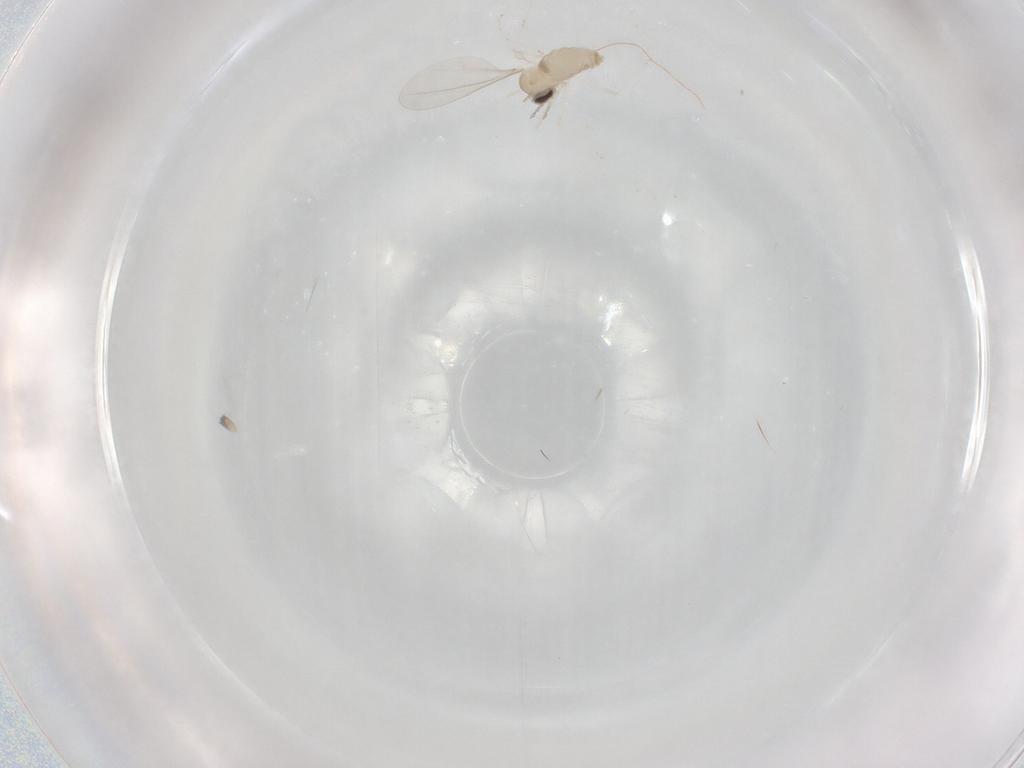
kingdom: Animalia
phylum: Arthropoda
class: Insecta
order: Diptera
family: Cecidomyiidae
